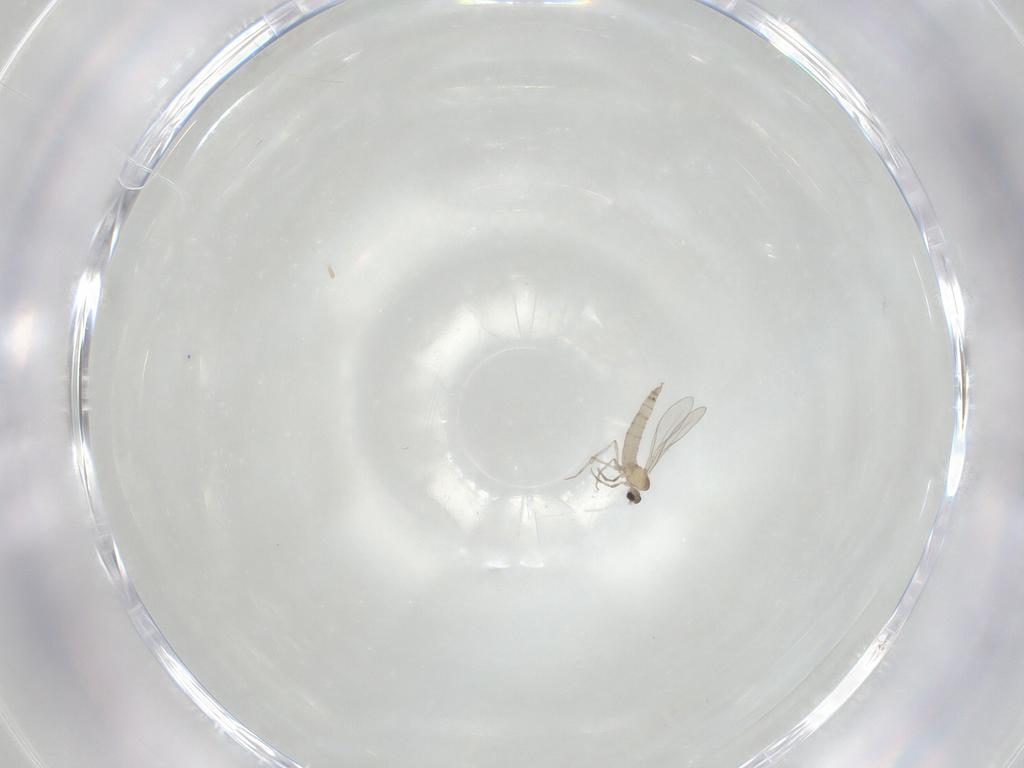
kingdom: Animalia
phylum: Arthropoda
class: Insecta
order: Diptera
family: Cecidomyiidae
